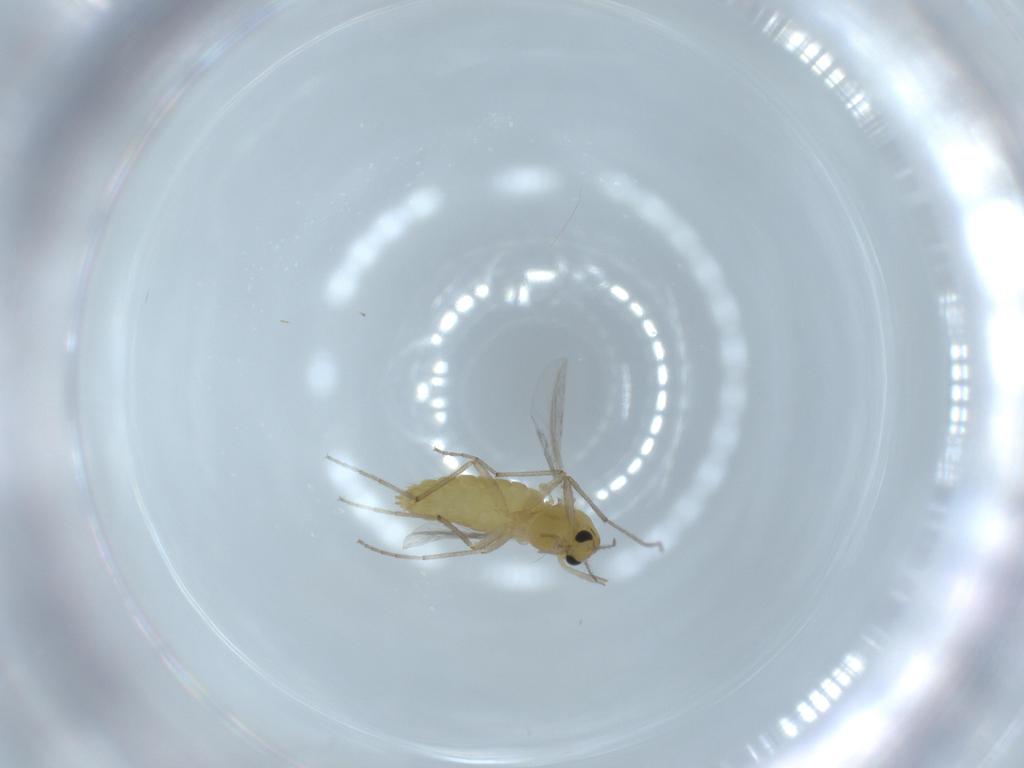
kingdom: Animalia
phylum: Arthropoda
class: Insecta
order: Diptera
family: Chironomidae
